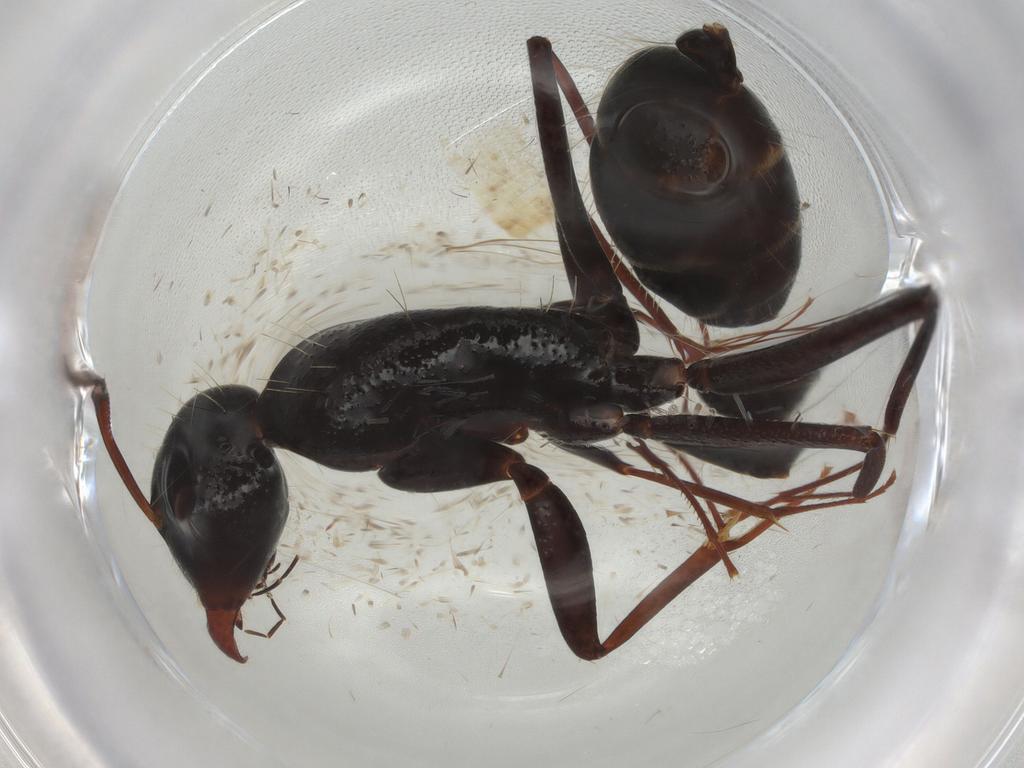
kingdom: Animalia
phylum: Arthropoda
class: Insecta
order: Hymenoptera
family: Formicidae
